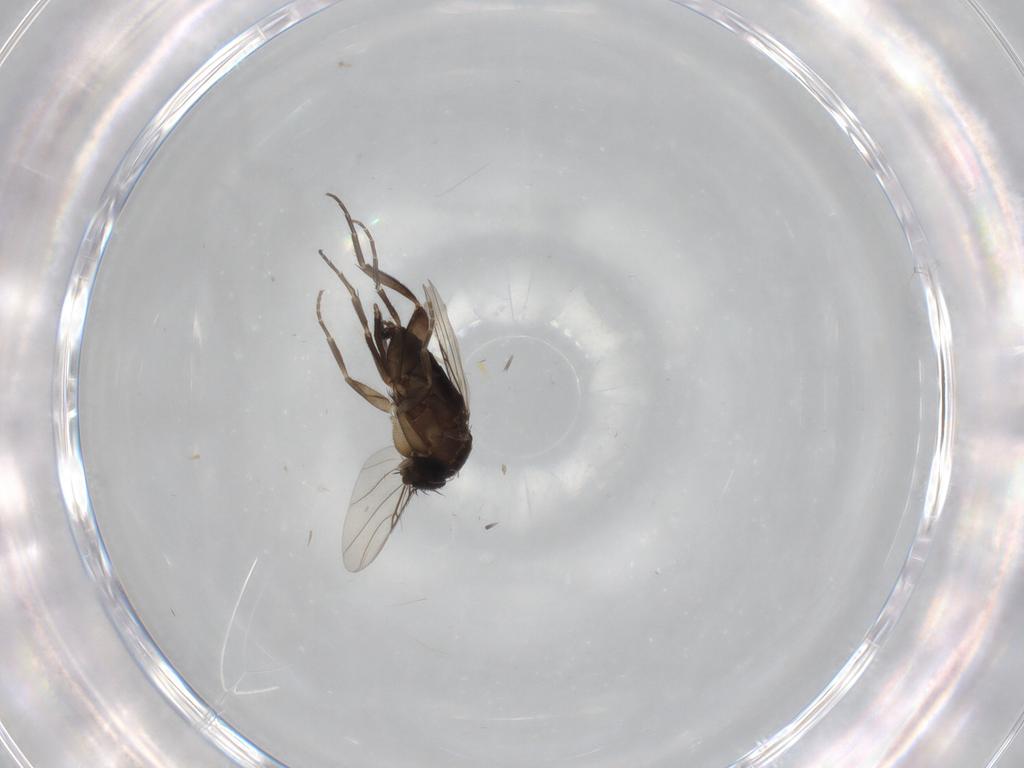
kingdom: Animalia
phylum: Arthropoda
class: Insecta
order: Diptera
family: Phoridae
